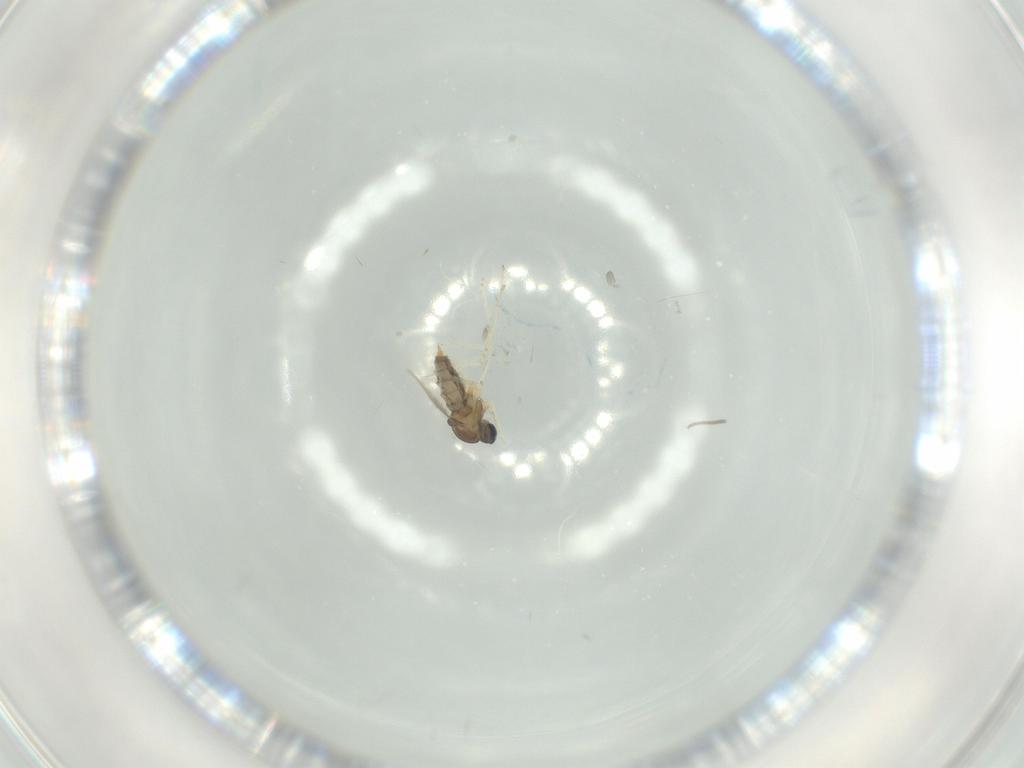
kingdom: Animalia
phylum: Arthropoda
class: Insecta
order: Diptera
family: Cecidomyiidae
